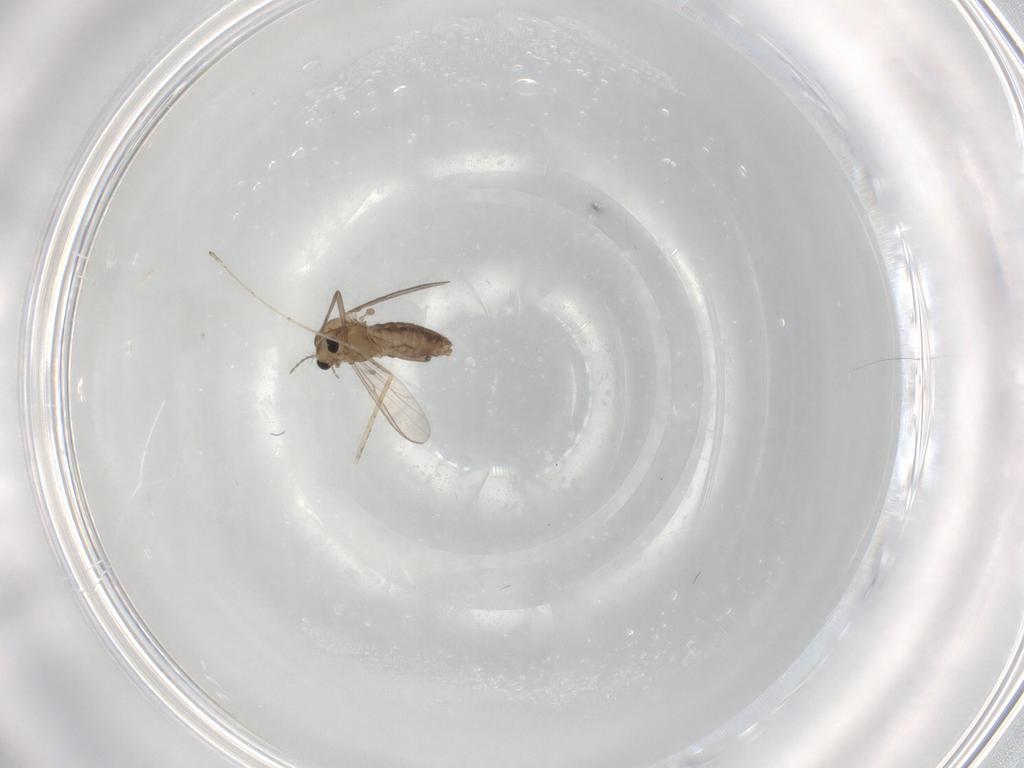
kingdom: Animalia
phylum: Arthropoda
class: Insecta
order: Diptera
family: Chironomidae
